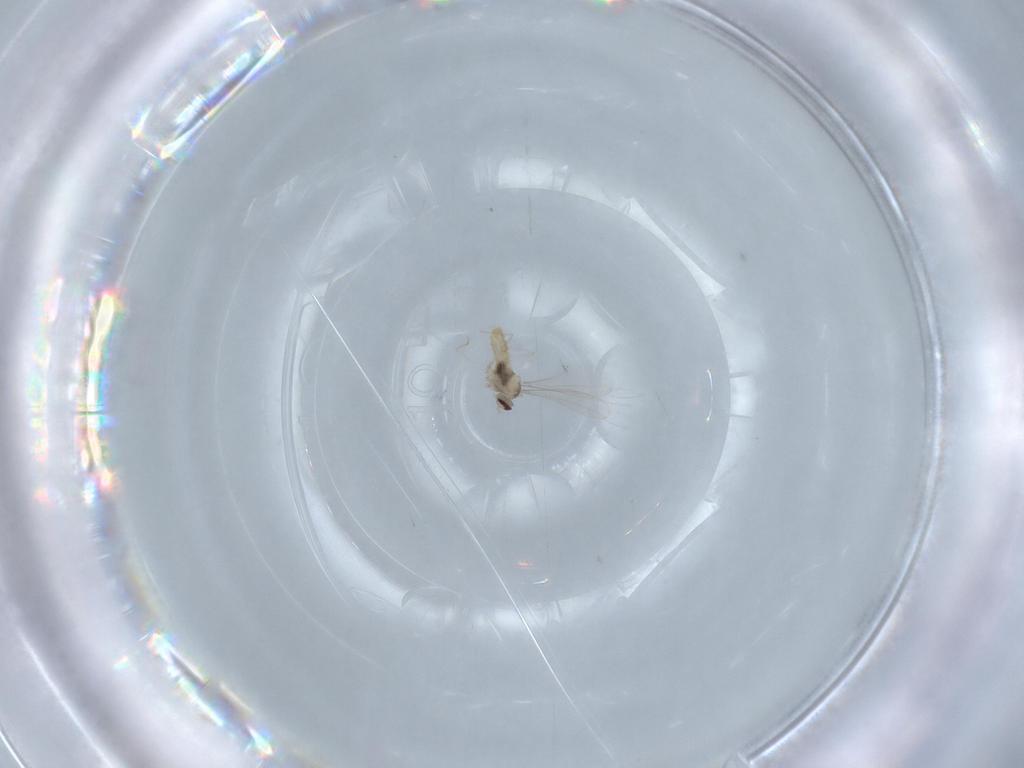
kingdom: Animalia
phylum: Arthropoda
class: Insecta
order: Diptera
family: Cecidomyiidae
